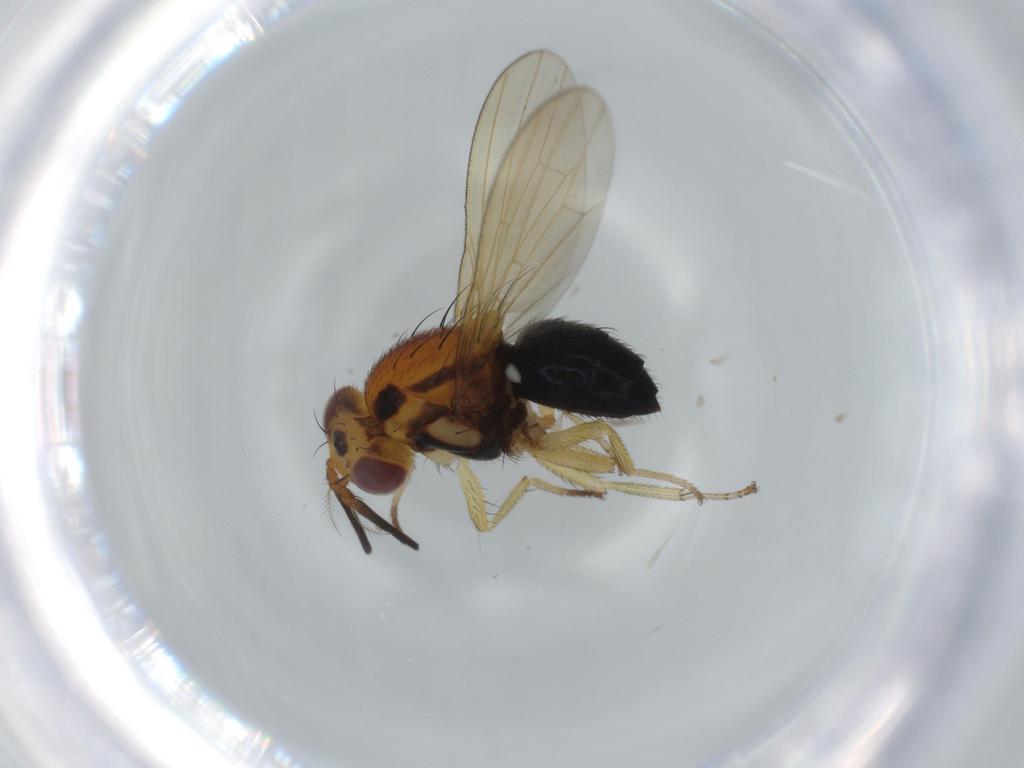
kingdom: Animalia
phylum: Arthropoda
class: Insecta
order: Diptera
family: Lauxaniidae
